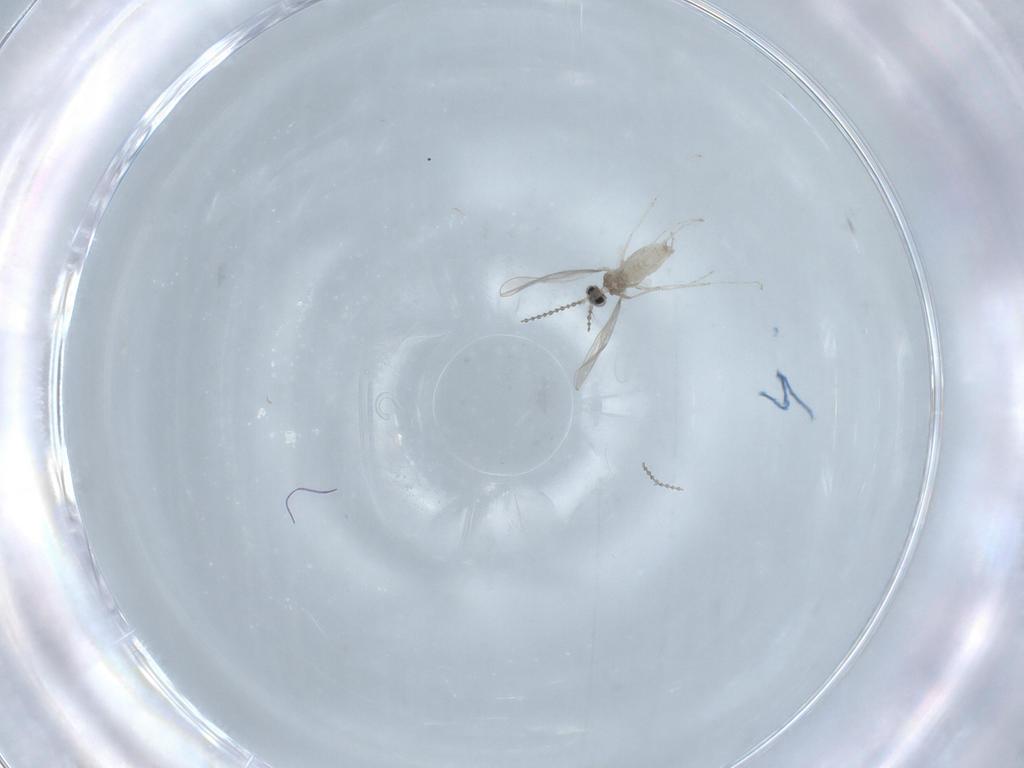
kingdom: Animalia
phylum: Arthropoda
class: Insecta
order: Diptera
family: Cecidomyiidae
